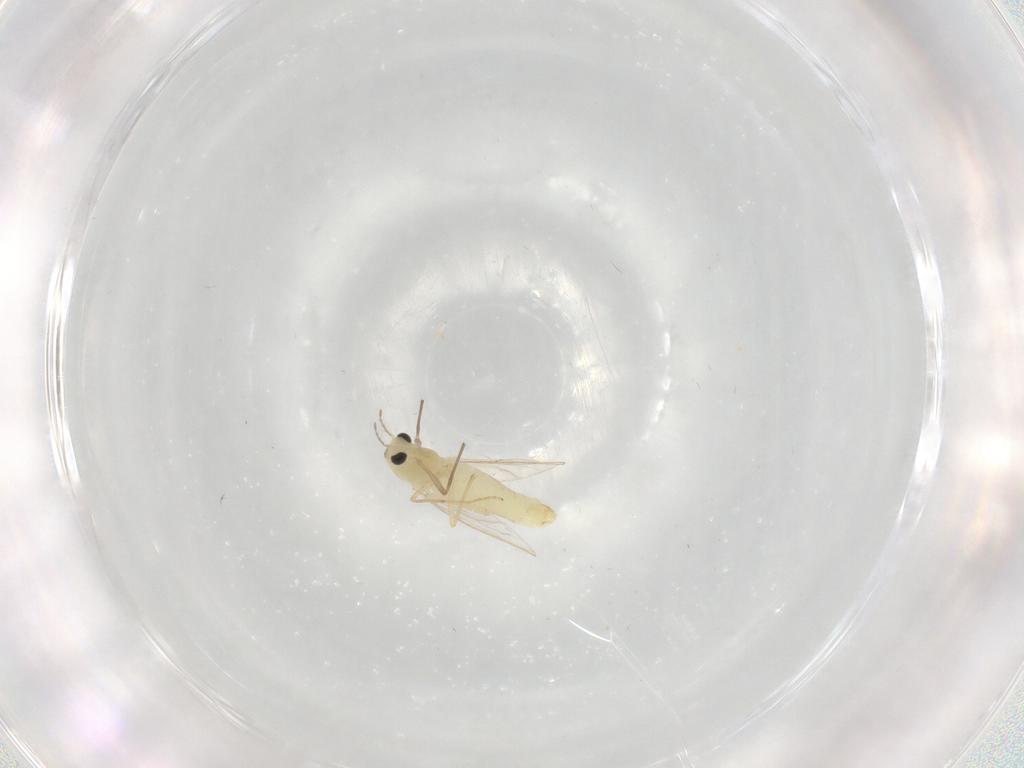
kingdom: Animalia
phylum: Arthropoda
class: Insecta
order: Diptera
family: Chironomidae
